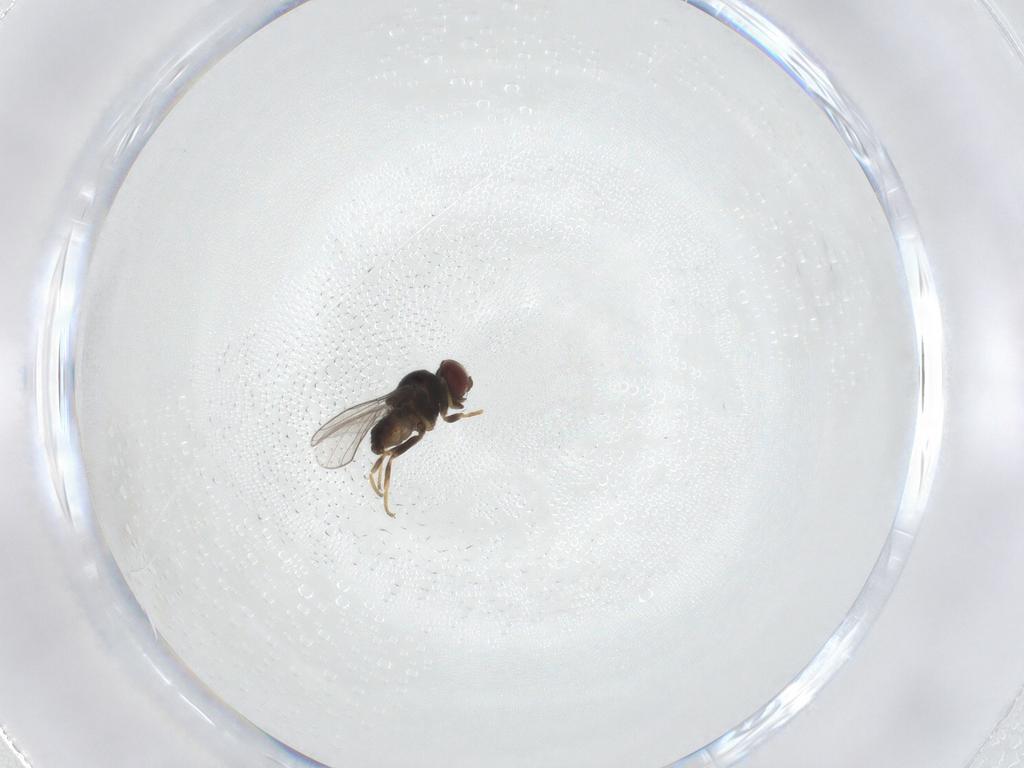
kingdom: Animalia
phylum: Arthropoda
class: Insecta
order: Diptera
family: Chloropidae
